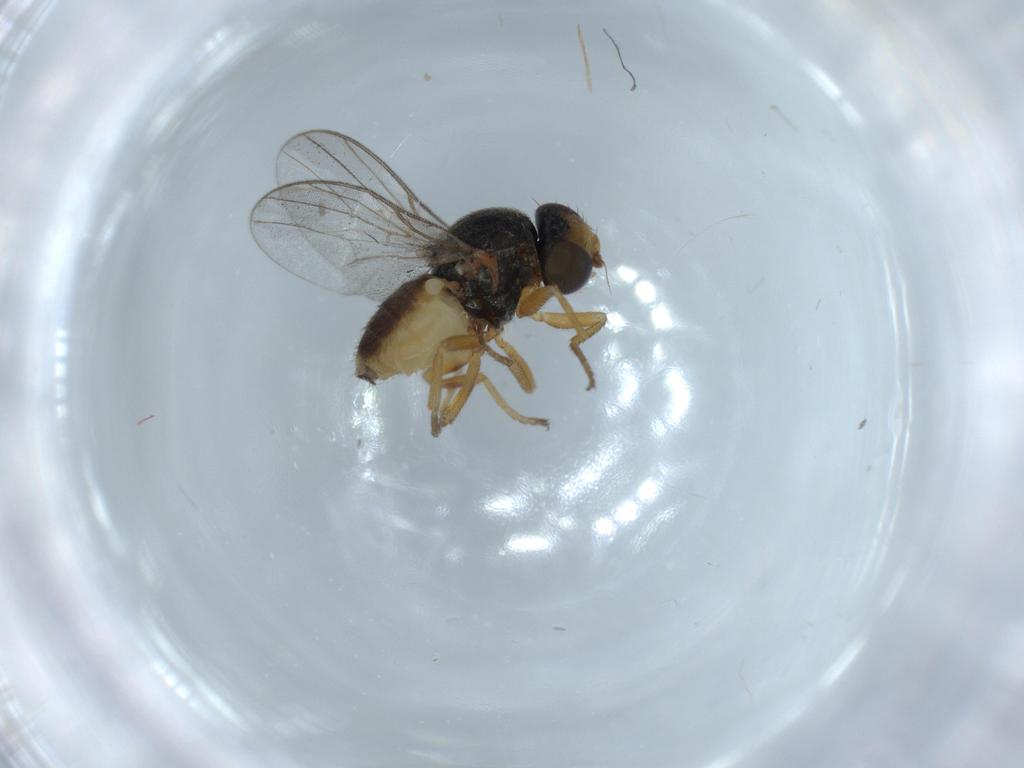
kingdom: Animalia
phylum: Arthropoda
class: Insecta
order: Diptera
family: Chloropidae
